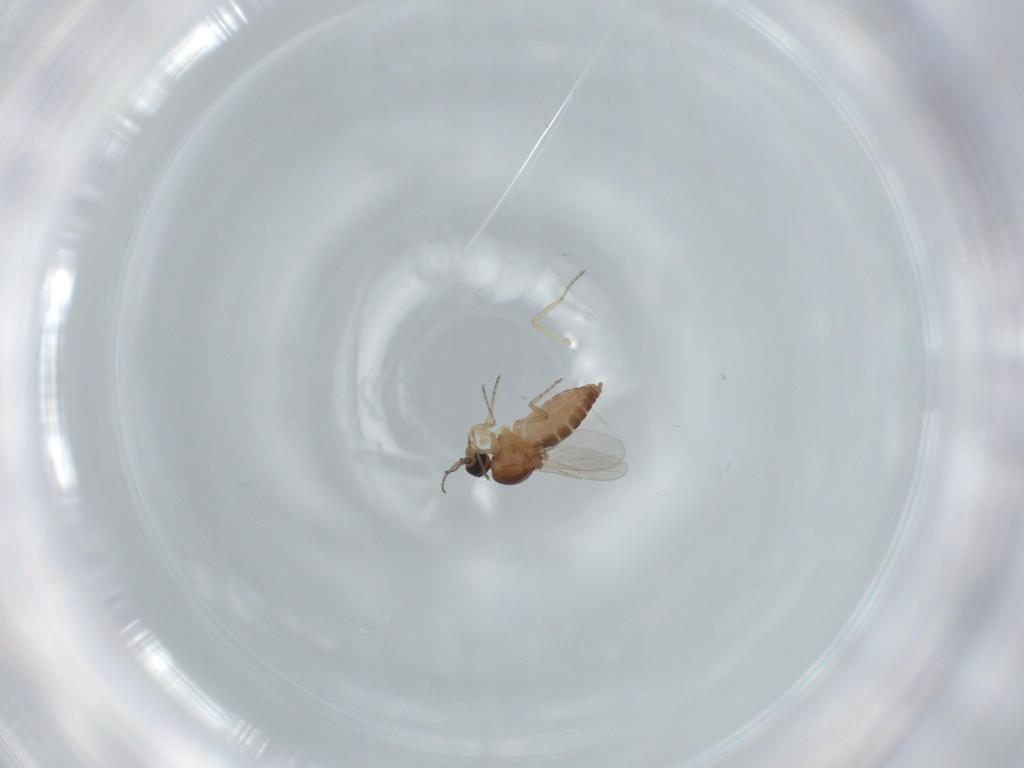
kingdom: Animalia
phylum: Arthropoda
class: Insecta
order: Diptera
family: Ceratopogonidae
